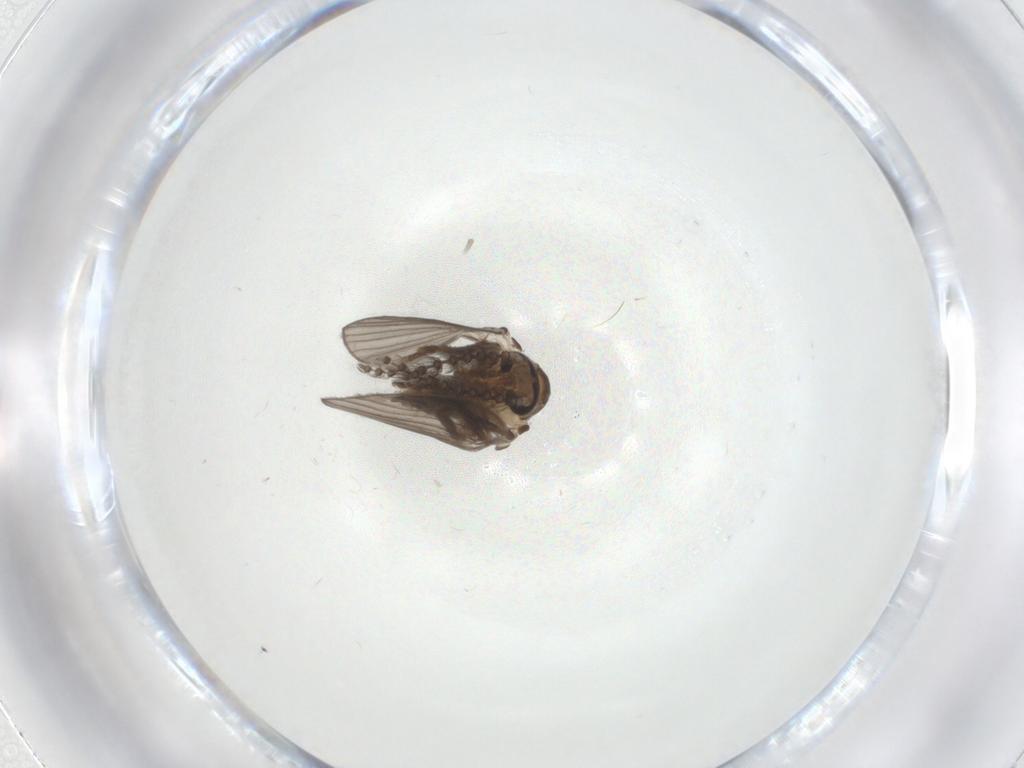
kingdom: Animalia
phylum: Arthropoda
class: Insecta
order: Diptera
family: Psychodidae
